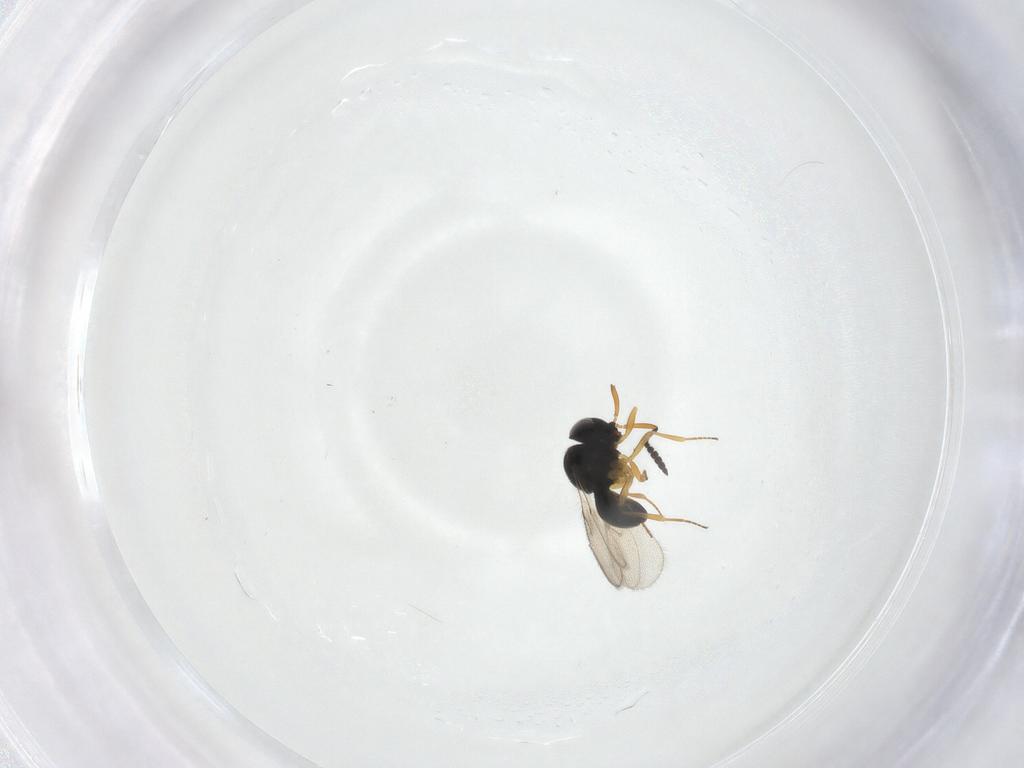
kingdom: Animalia
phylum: Arthropoda
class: Insecta
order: Hymenoptera
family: Scelionidae
